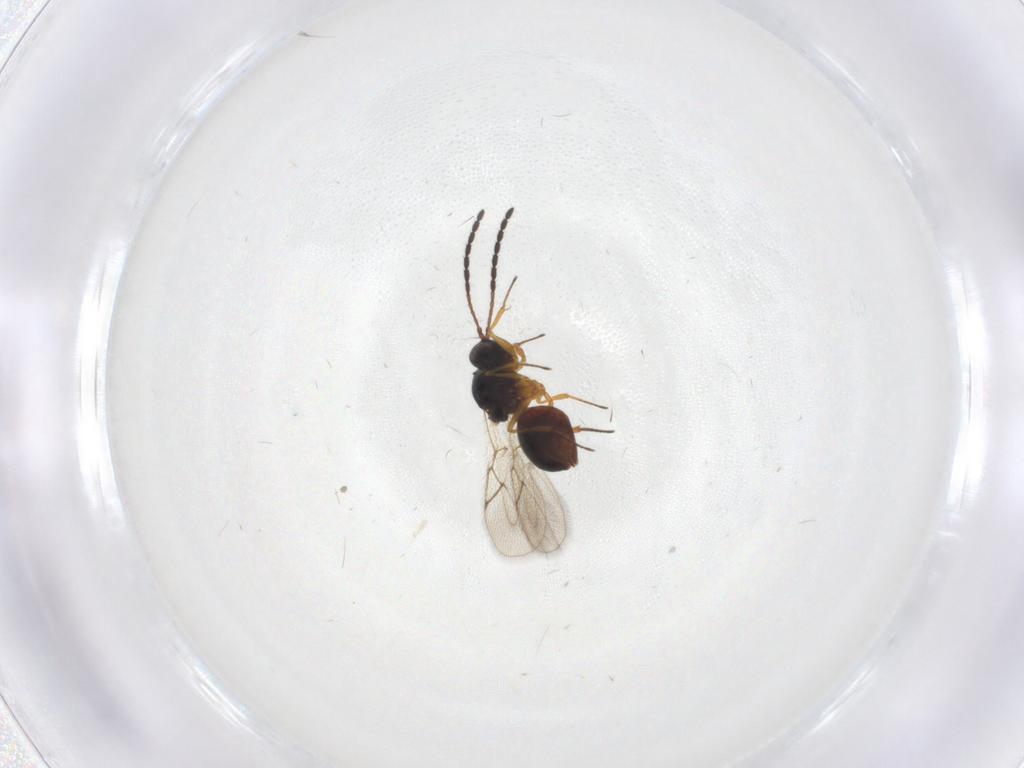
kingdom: Animalia
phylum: Arthropoda
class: Insecta
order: Hymenoptera
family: Figitidae
